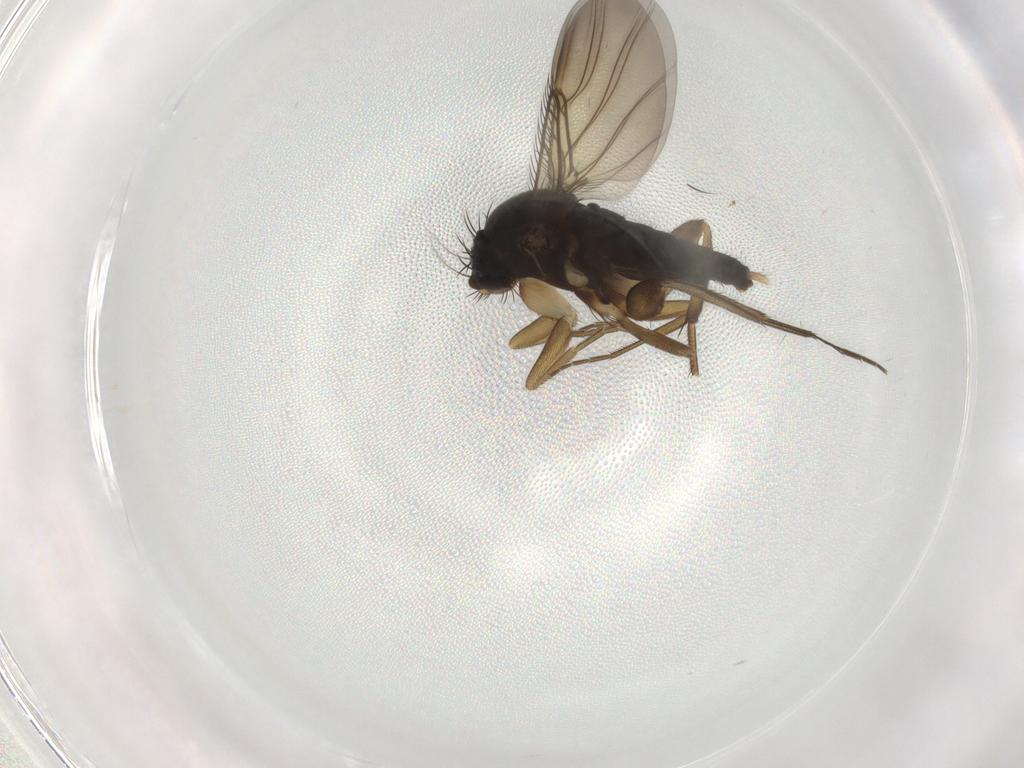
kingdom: Animalia
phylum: Arthropoda
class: Insecta
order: Diptera
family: Phoridae
